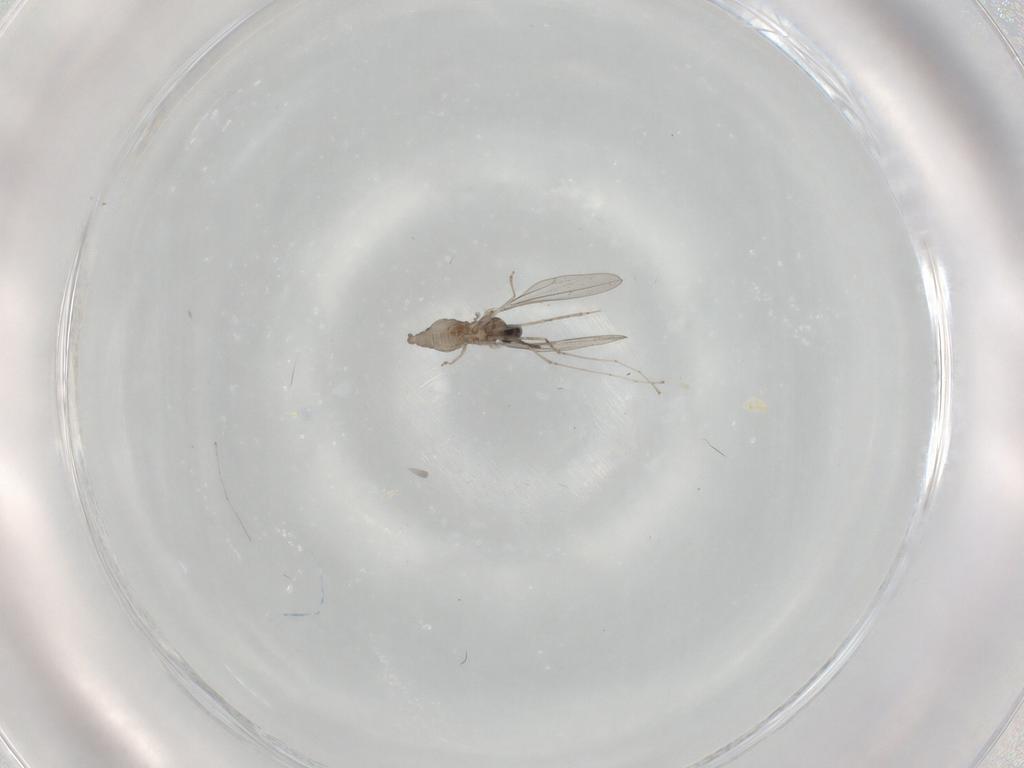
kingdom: Animalia
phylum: Arthropoda
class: Insecta
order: Diptera
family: Cecidomyiidae
